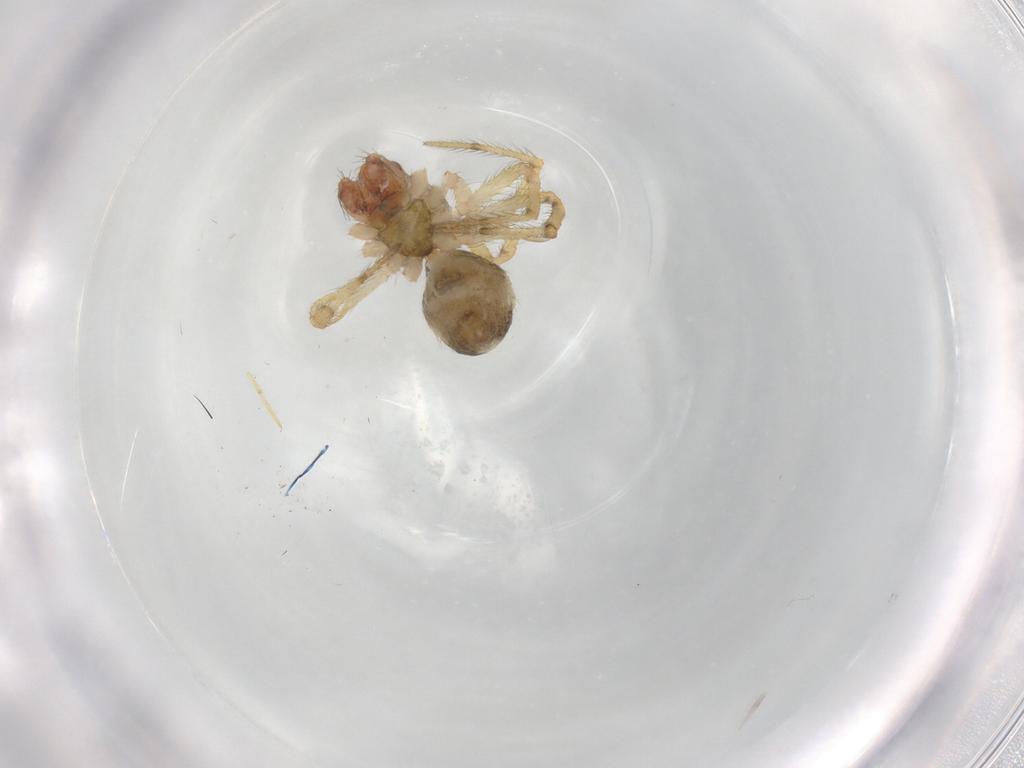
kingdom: Animalia
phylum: Arthropoda
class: Arachnida
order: Araneae
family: Theridiidae
